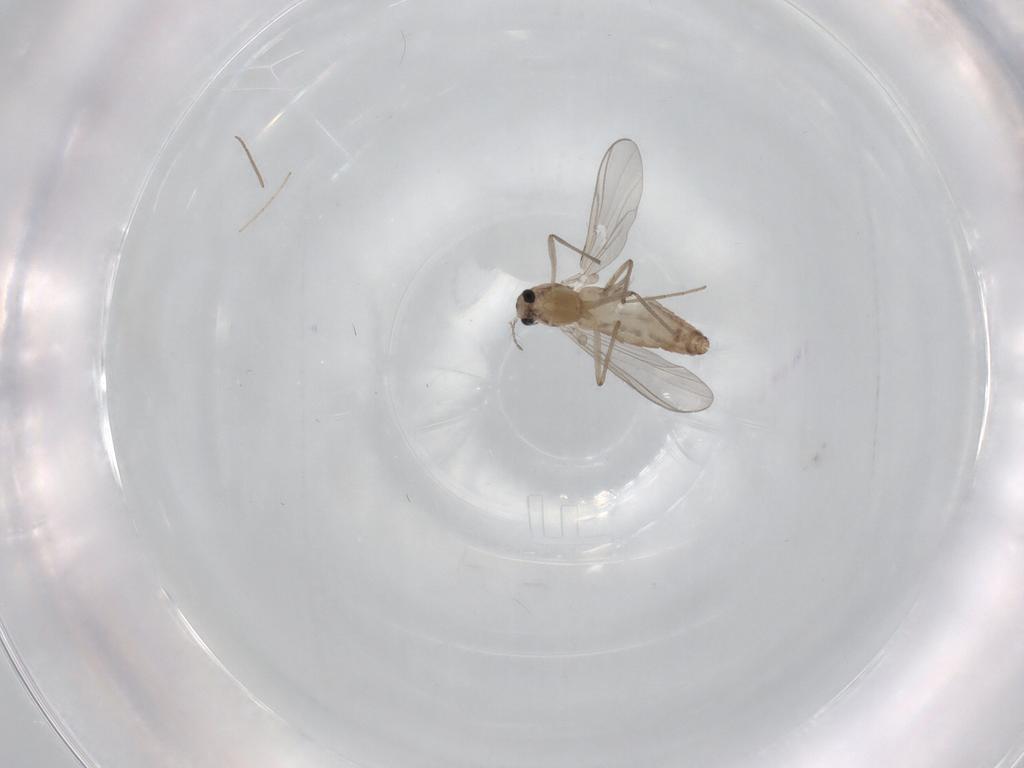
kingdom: Animalia
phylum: Arthropoda
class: Insecta
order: Diptera
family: Chironomidae
